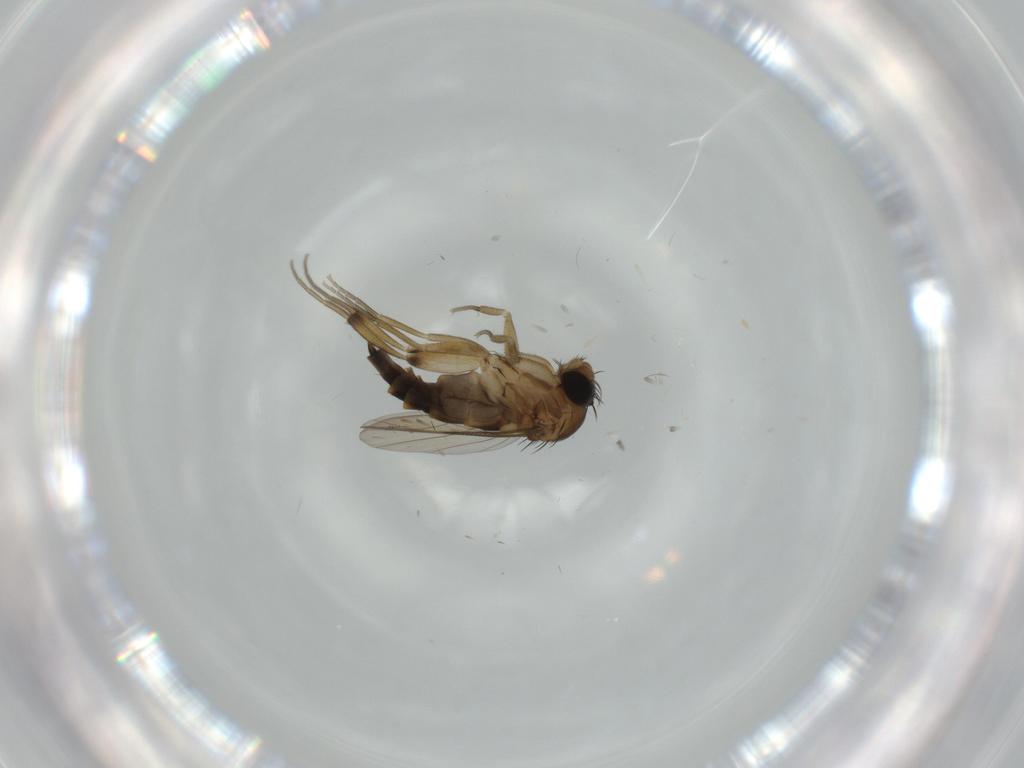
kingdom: Animalia
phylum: Arthropoda
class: Insecta
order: Diptera
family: Phoridae
